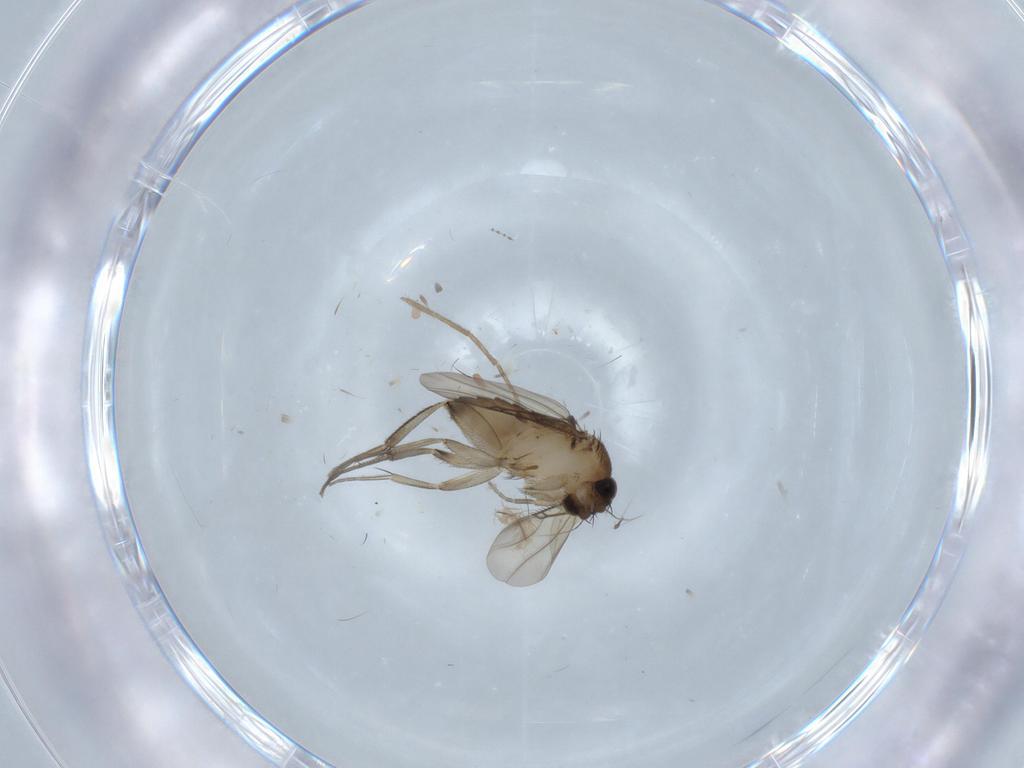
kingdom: Animalia
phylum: Arthropoda
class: Insecta
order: Diptera
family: Phoridae
